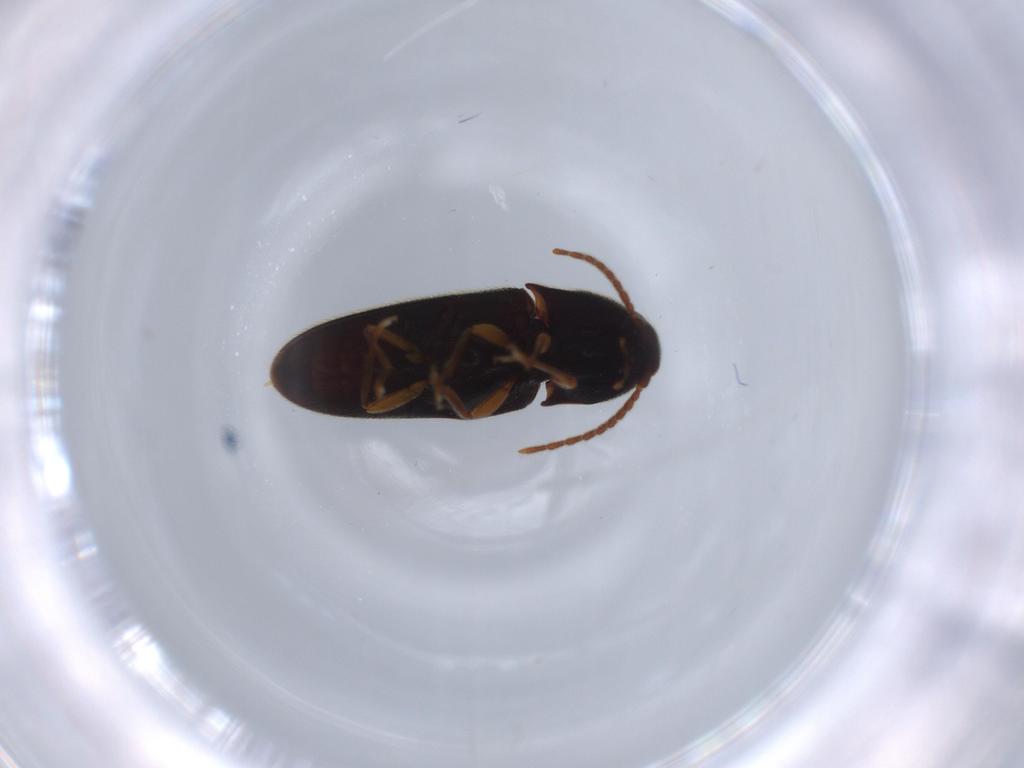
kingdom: Animalia
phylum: Arthropoda
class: Insecta
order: Coleoptera
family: Elateridae
